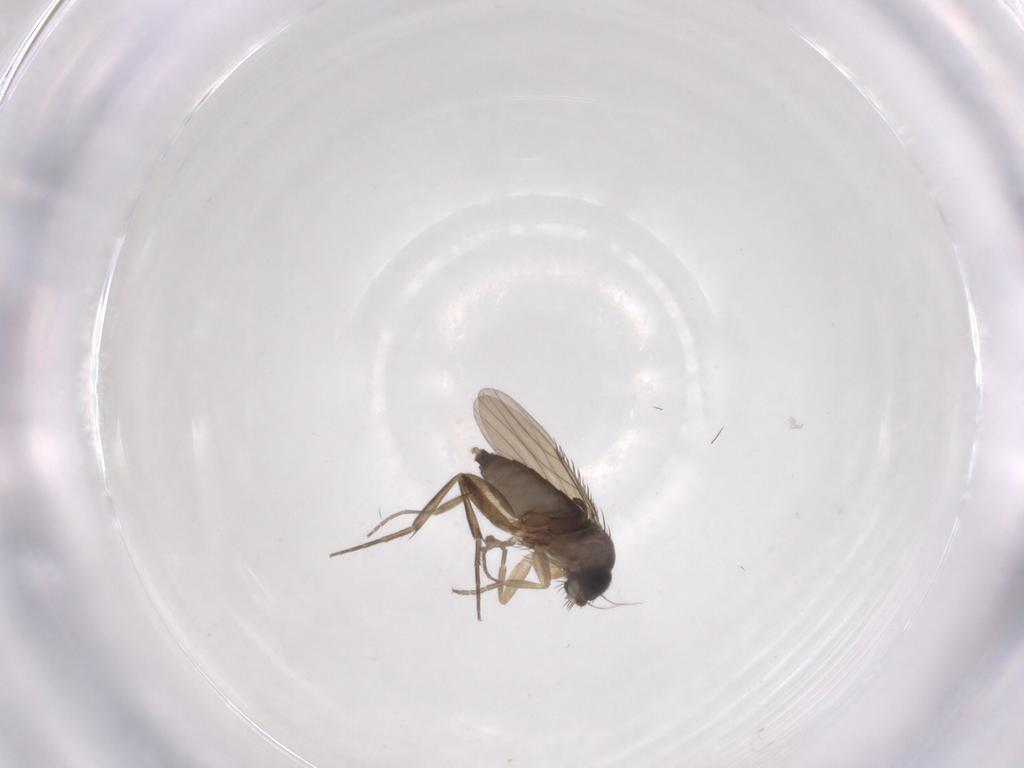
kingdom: Animalia
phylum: Arthropoda
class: Insecta
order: Diptera
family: Phoridae
